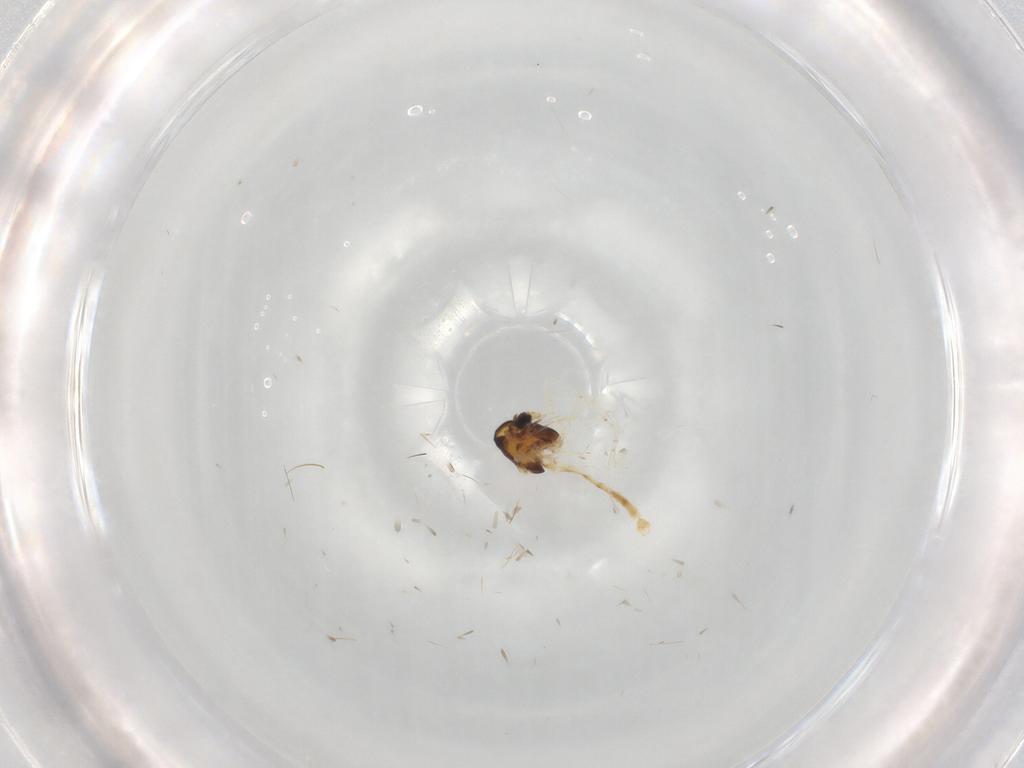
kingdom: Animalia
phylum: Arthropoda
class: Insecta
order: Diptera
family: Chironomidae
